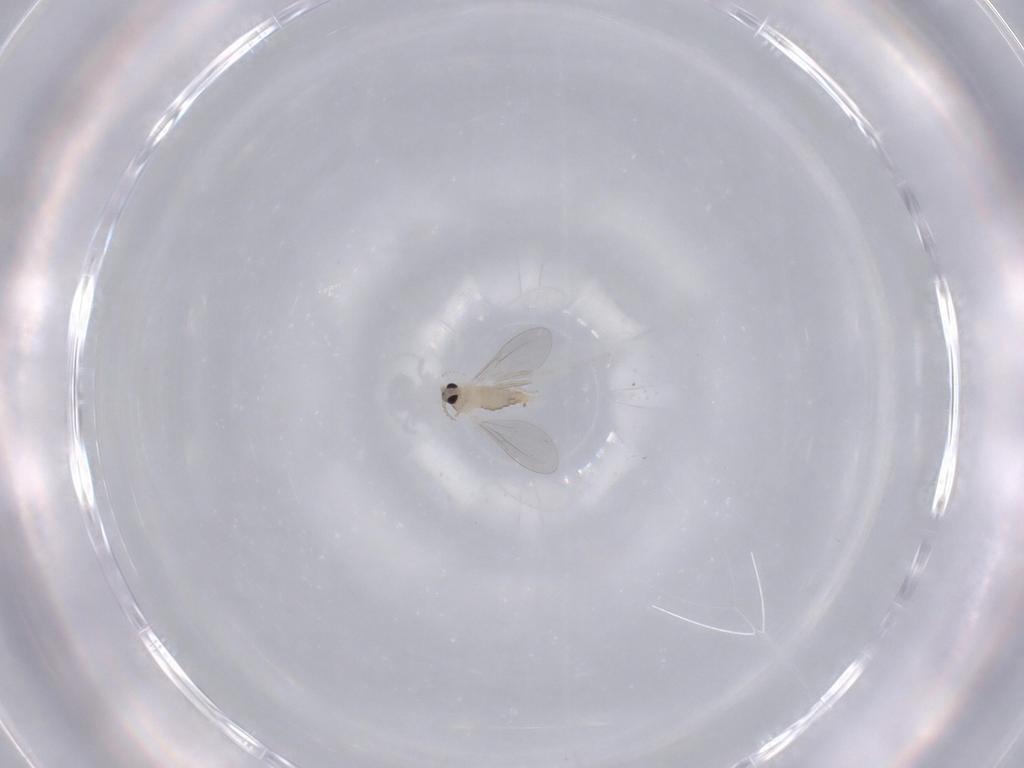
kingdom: Animalia
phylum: Arthropoda
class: Insecta
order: Diptera
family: Cecidomyiidae
